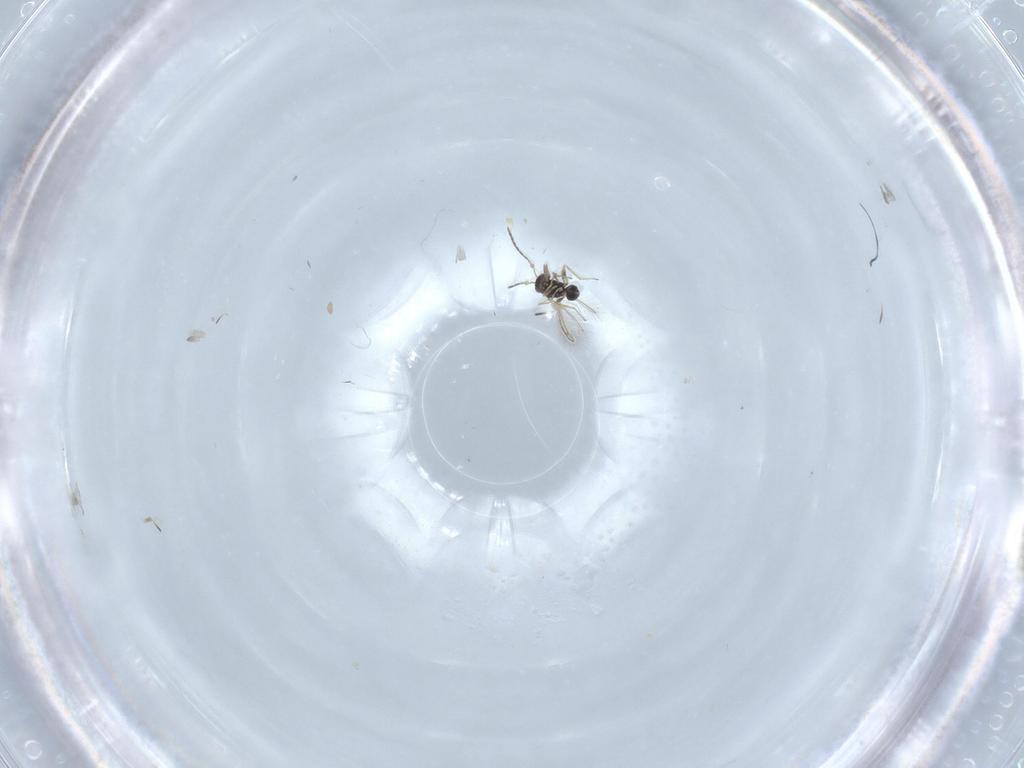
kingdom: Animalia
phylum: Arthropoda
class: Insecta
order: Hymenoptera
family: Mymaridae
